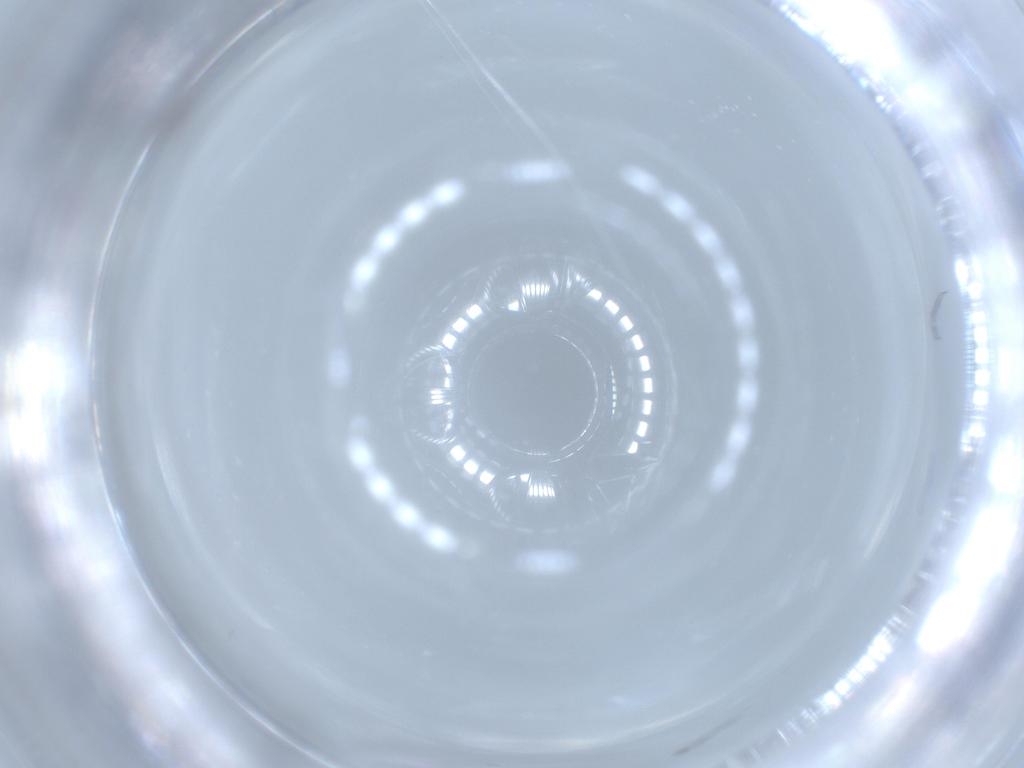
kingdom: Animalia
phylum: Arthropoda
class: Insecta
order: Diptera
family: Cecidomyiidae
